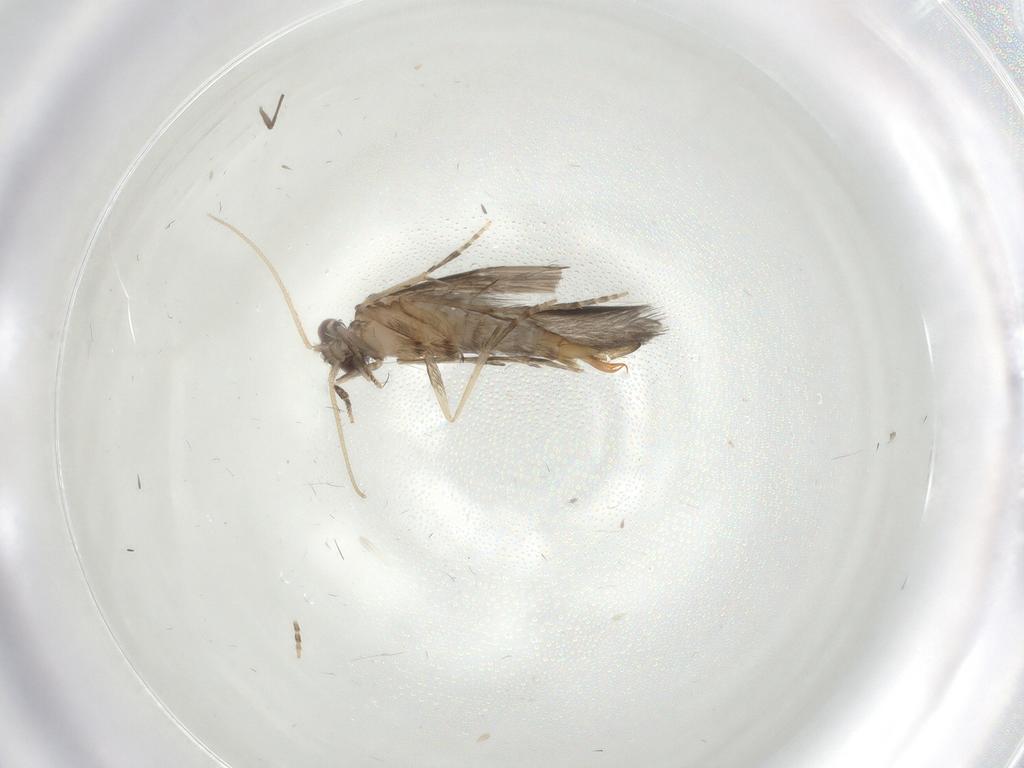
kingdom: Animalia
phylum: Arthropoda
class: Insecta
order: Trichoptera
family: Hydroptilidae
